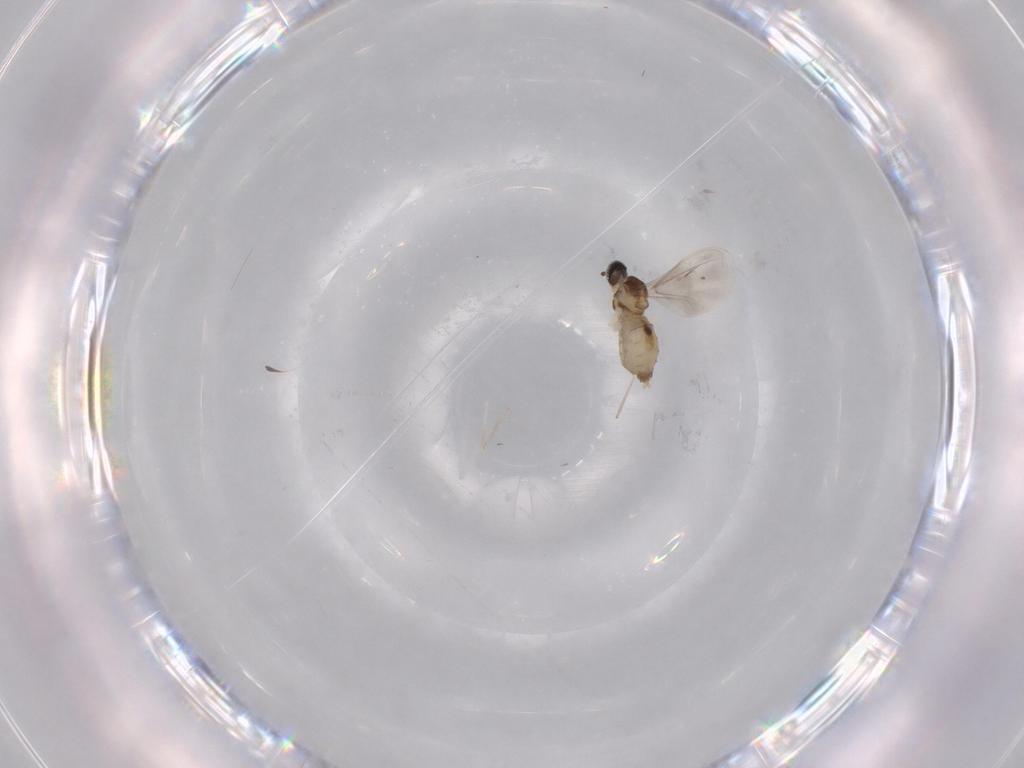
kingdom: Animalia
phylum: Arthropoda
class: Insecta
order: Diptera
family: Cecidomyiidae
